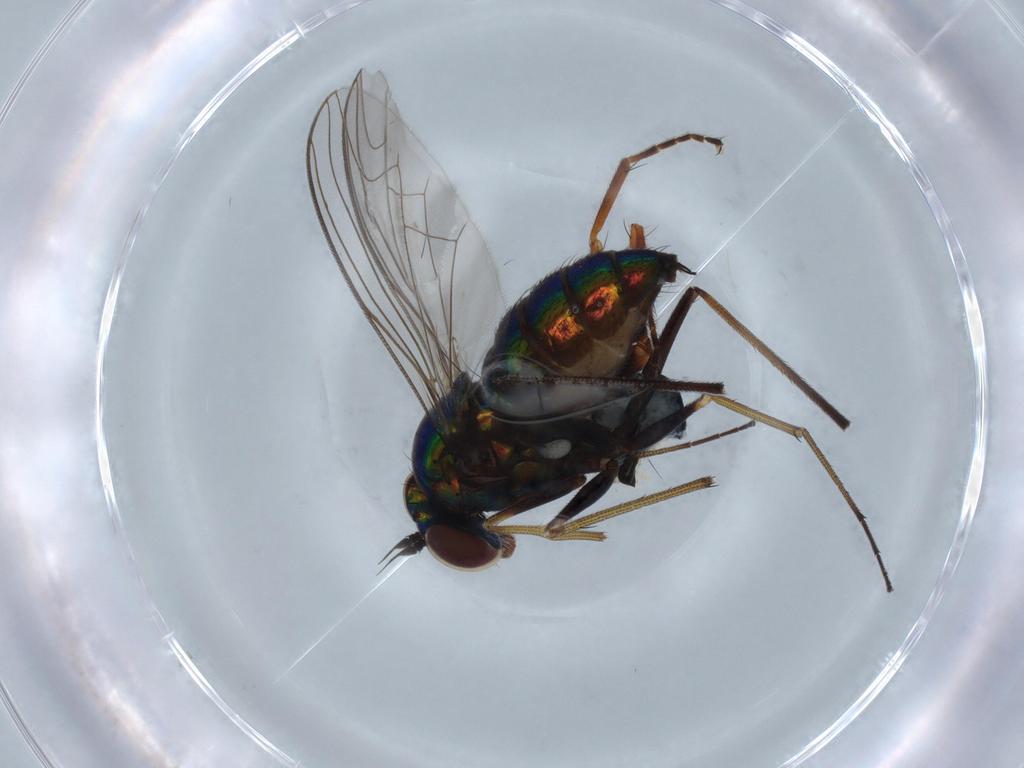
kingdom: Animalia
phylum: Arthropoda
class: Insecta
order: Diptera
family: Dolichopodidae
